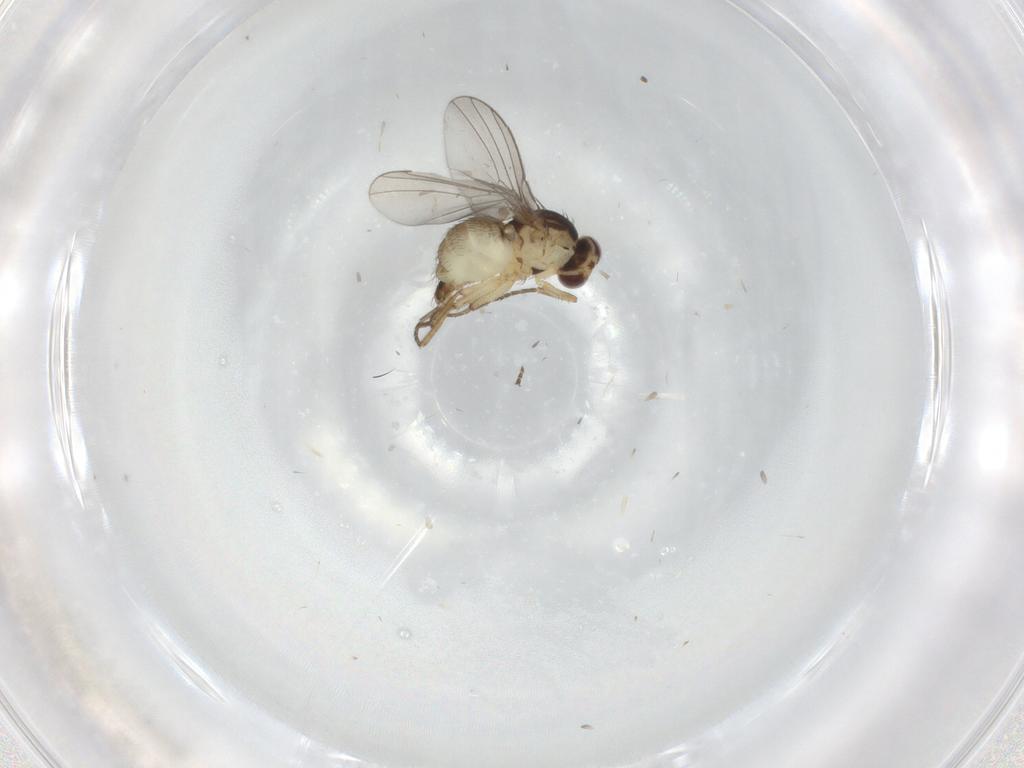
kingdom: Animalia
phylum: Arthropoda
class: Insecta
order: Diptera
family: Agromyzidae
